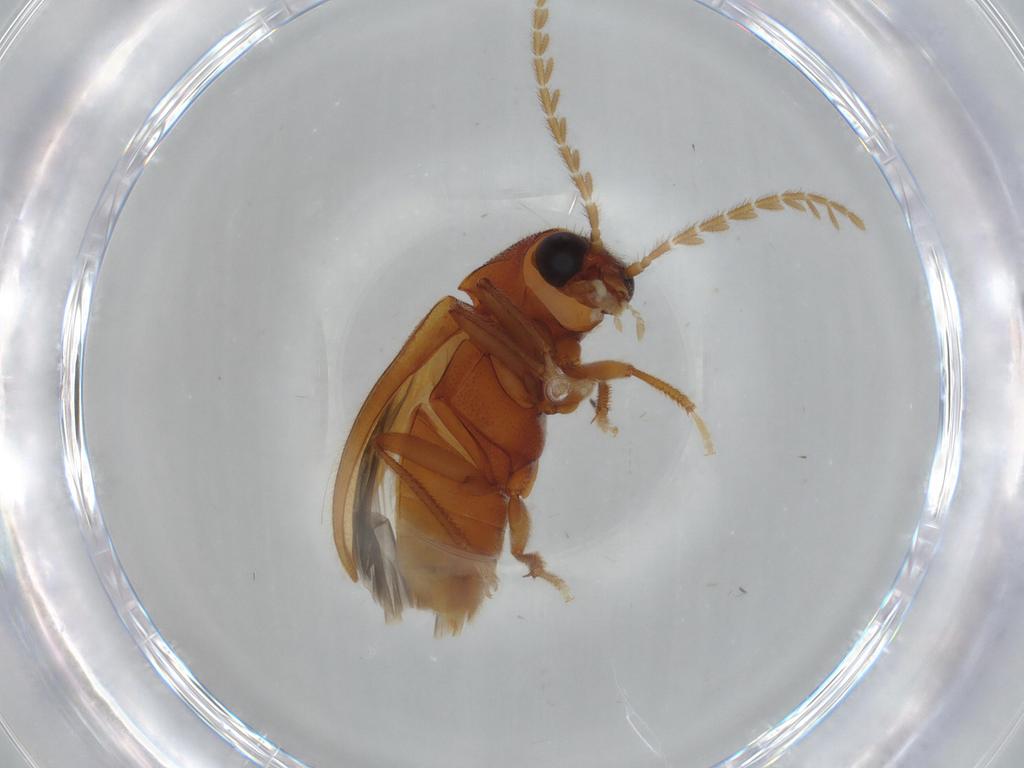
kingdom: Animalia
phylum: Arthropoda
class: Insecta
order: Coleoptera
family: Ptilodactylidae
